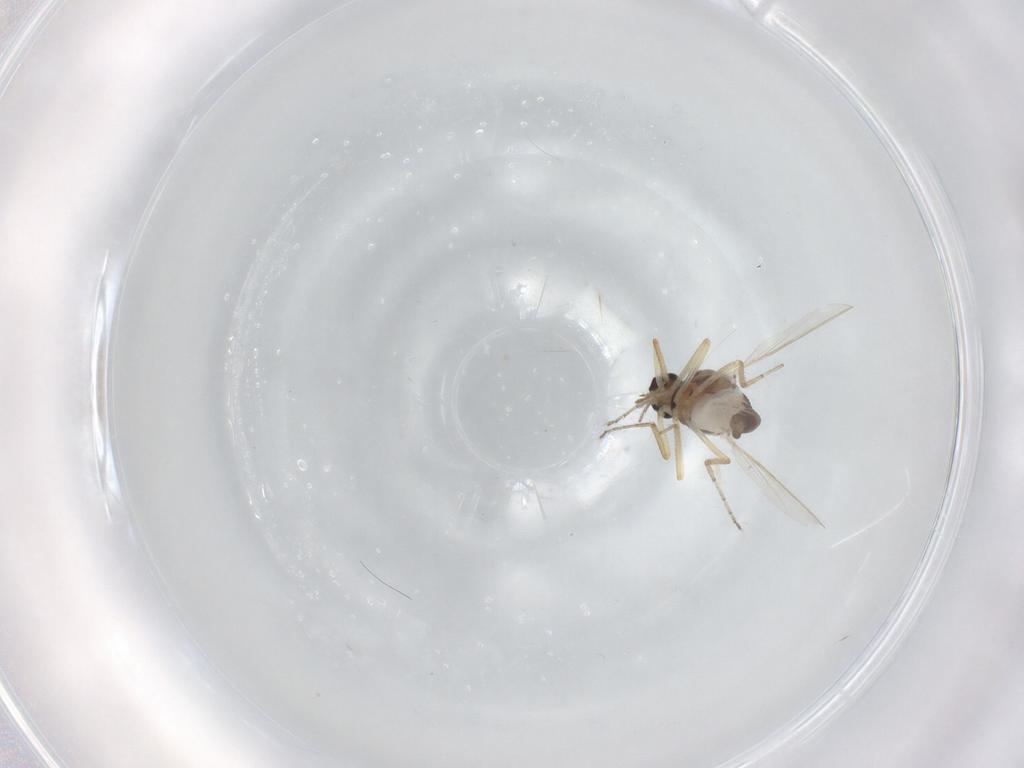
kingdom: Animalia
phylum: Arthropoda
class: Insecta
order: Diptera
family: Ceratopogonidae
